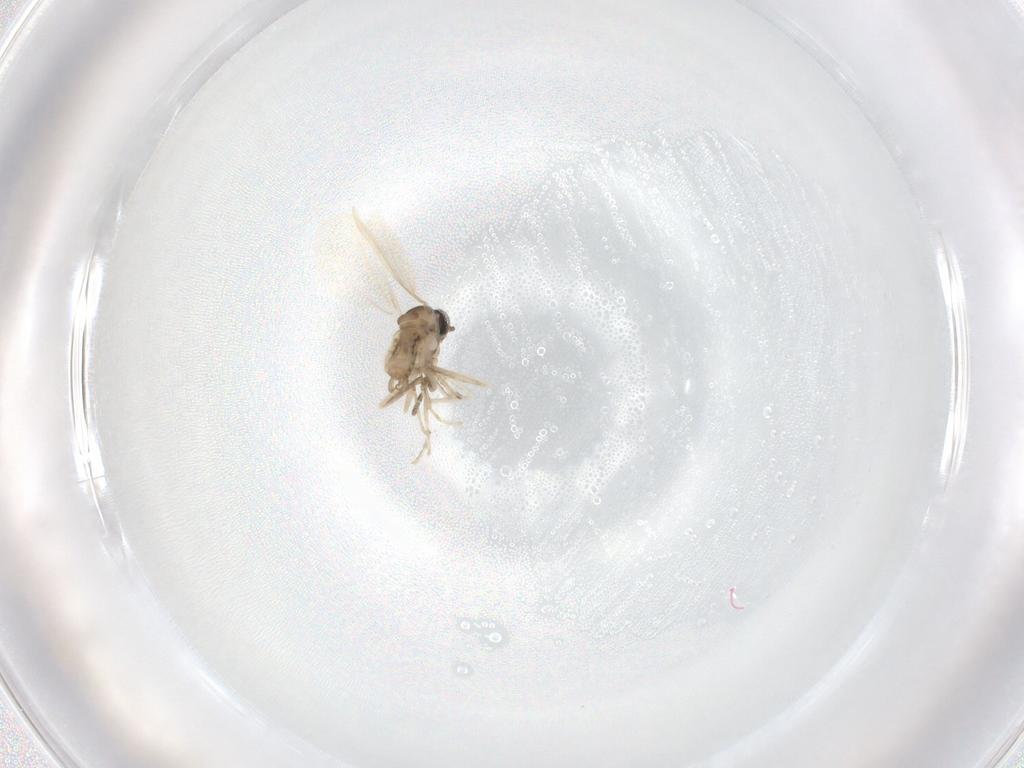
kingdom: Animalia
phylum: Arthropoda
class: Insecta
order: Diptera
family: Cecidomyiidae
